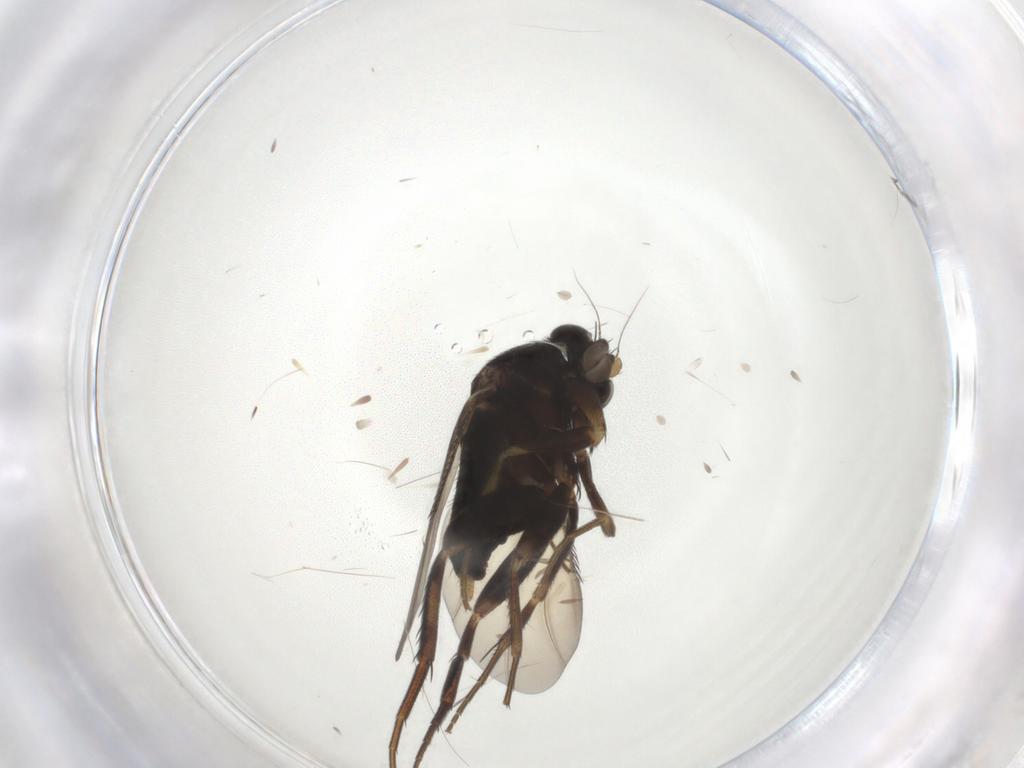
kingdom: Animalia
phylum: Arthropoda
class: Insecta
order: Diptera
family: Phoridae
